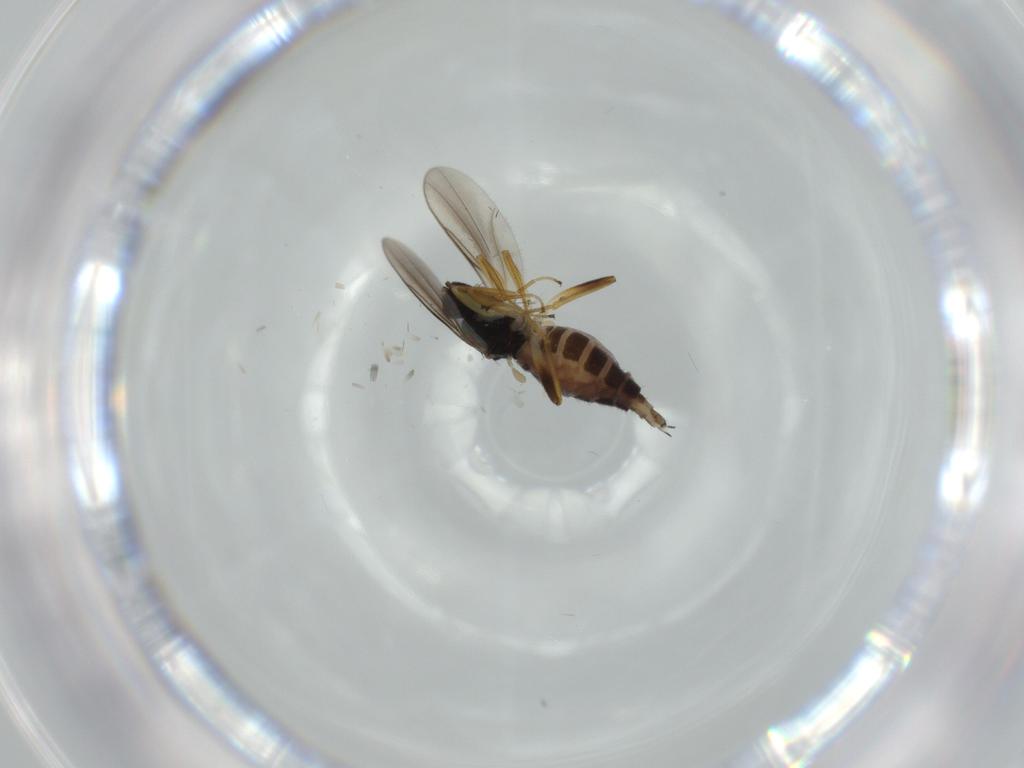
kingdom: Animalia
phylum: Arthropoda
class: Insecta
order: Diptera
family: Hybotidae
